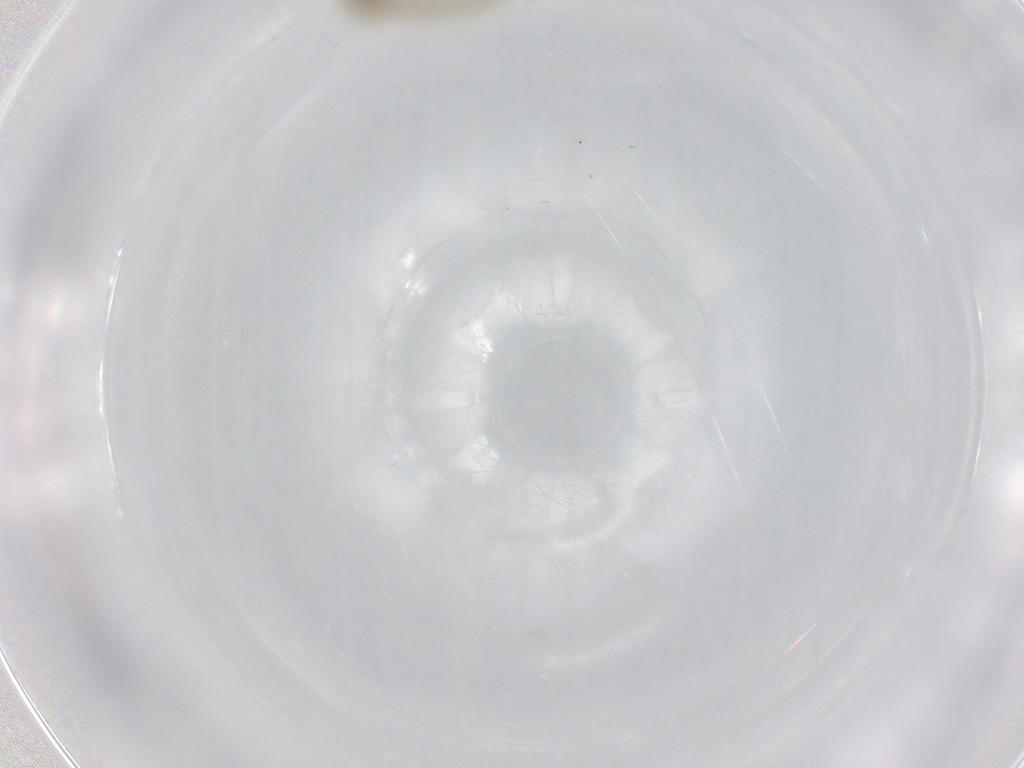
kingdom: Animalia
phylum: Arthropoda
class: Insecta
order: Diptera
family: Chironomidae
